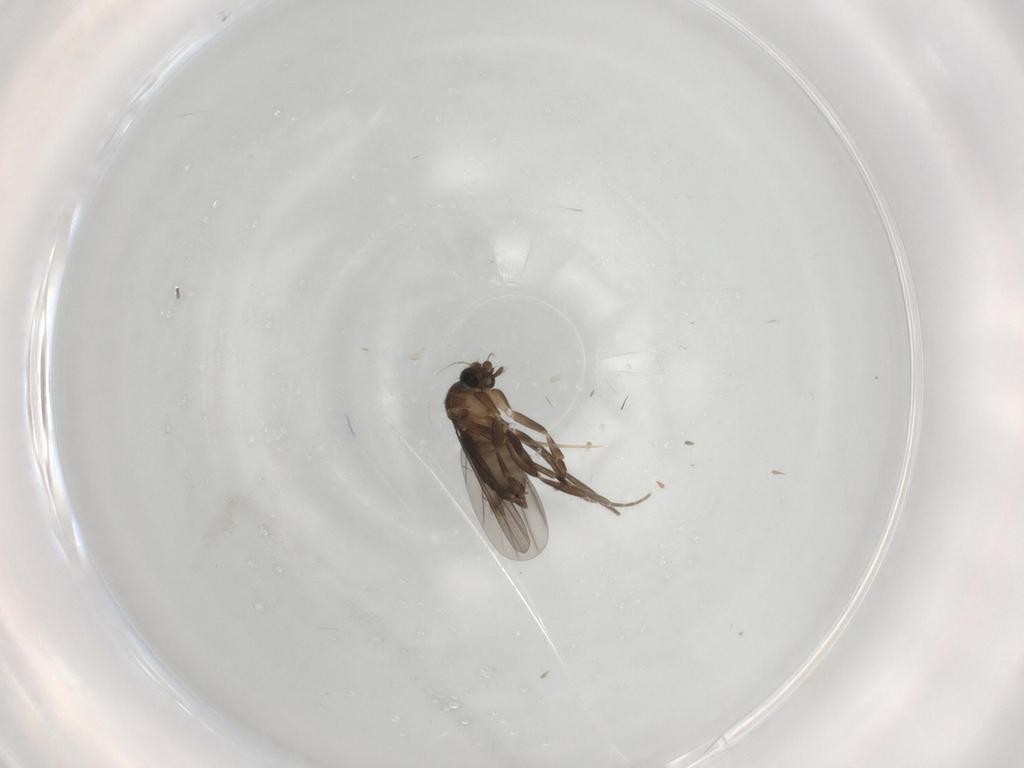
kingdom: Animalia
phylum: Arthropoda
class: Insecta
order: Diptera
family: Phoridae
